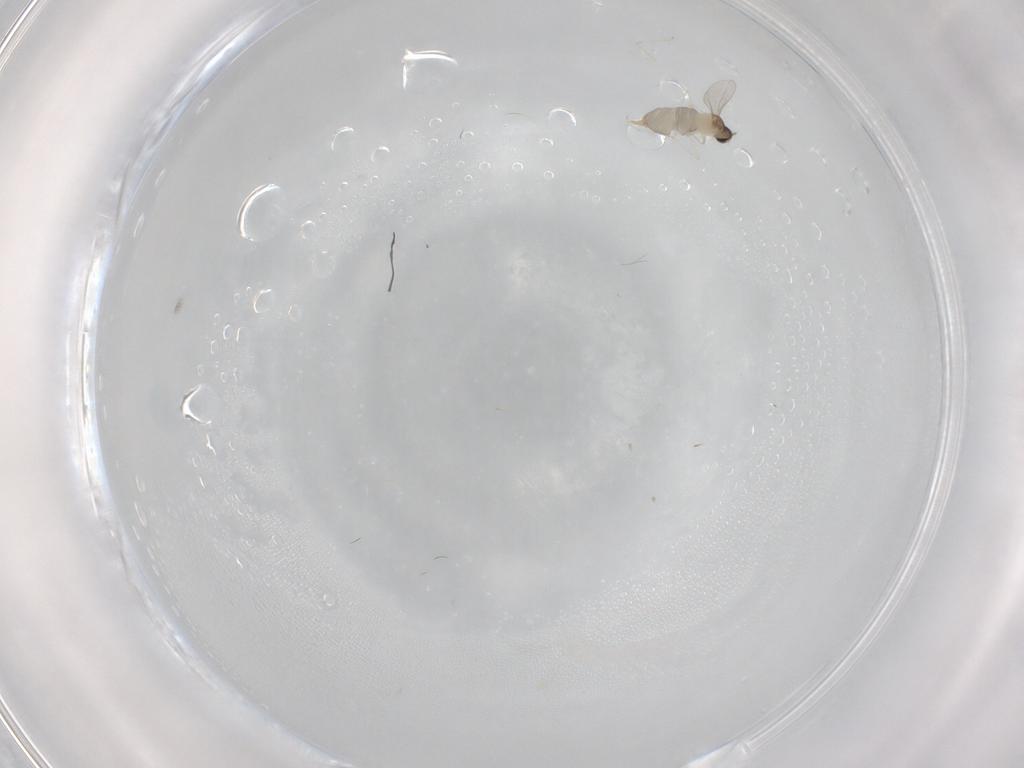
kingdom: Animalia
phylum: Arthropoda
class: Insecta
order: Diptera
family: Cecidomyiidae
